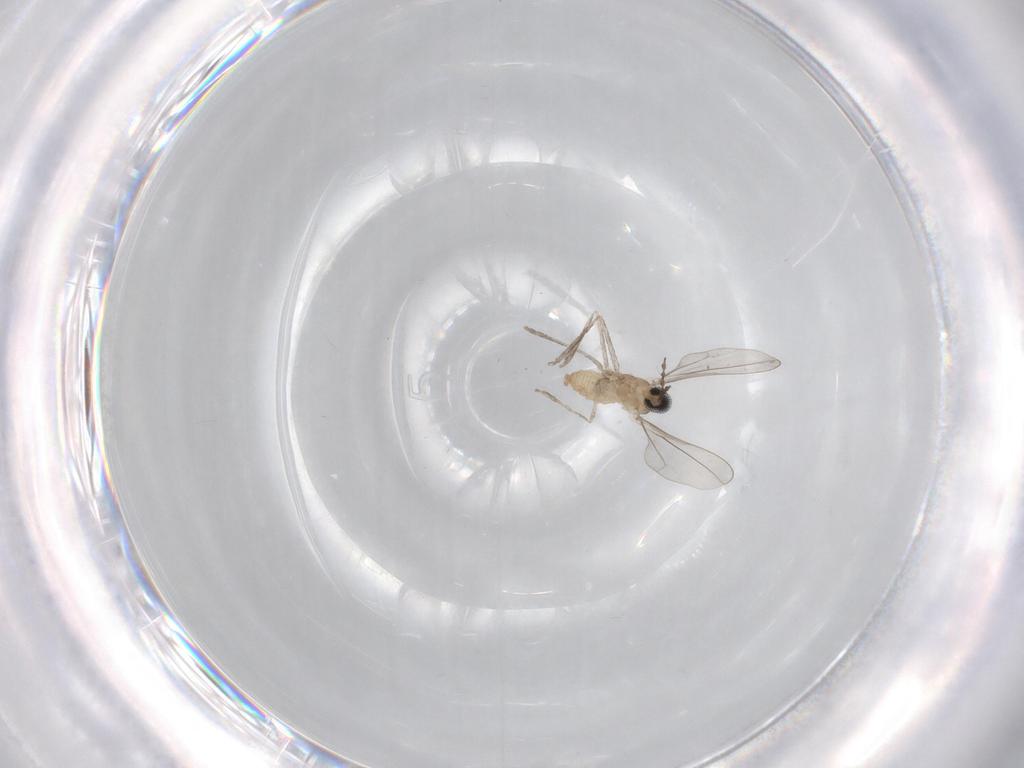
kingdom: Animalia
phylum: Arthropoda
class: Insecta
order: Diptera
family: Cecidomyiidae
